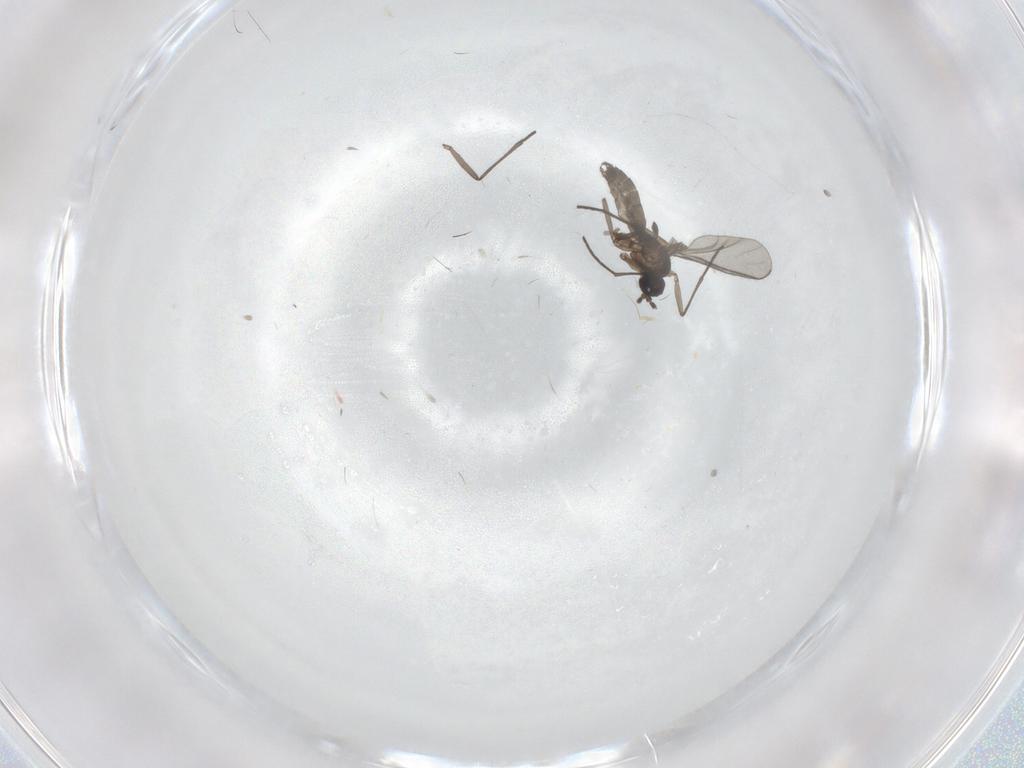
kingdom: Animalia
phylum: Arthropoda
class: Insecta
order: Diptera
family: Chironomidae
